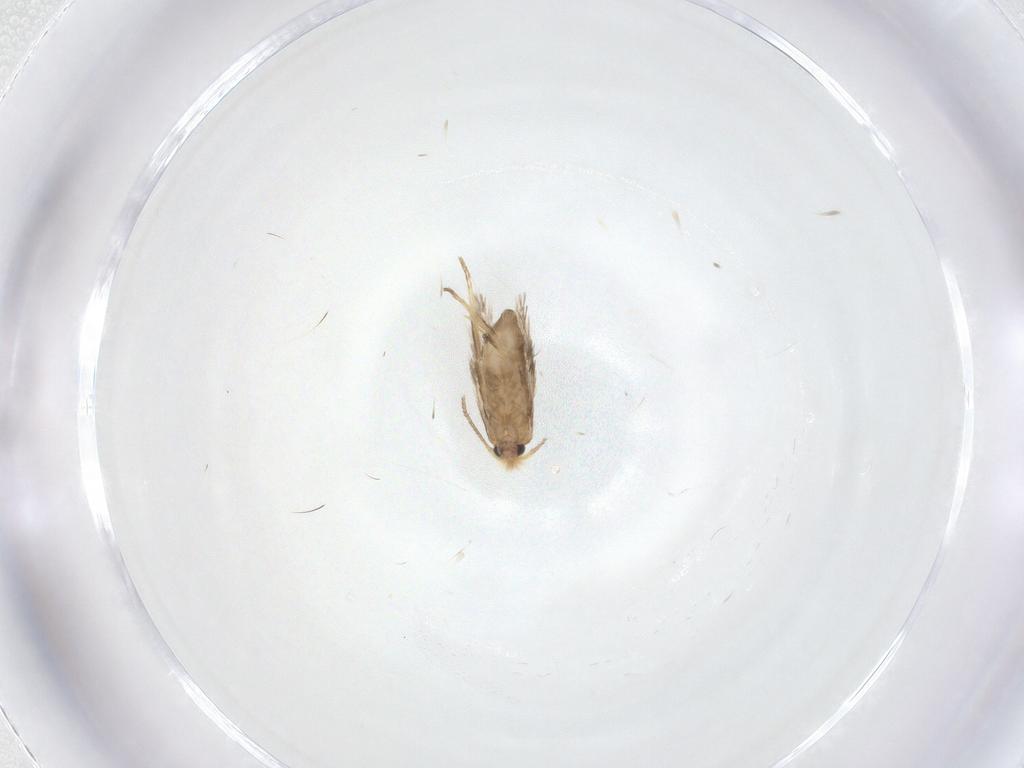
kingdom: Animalia
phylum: Arthropoda
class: Insecta
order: Lepidoptera
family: Nepticulidae
